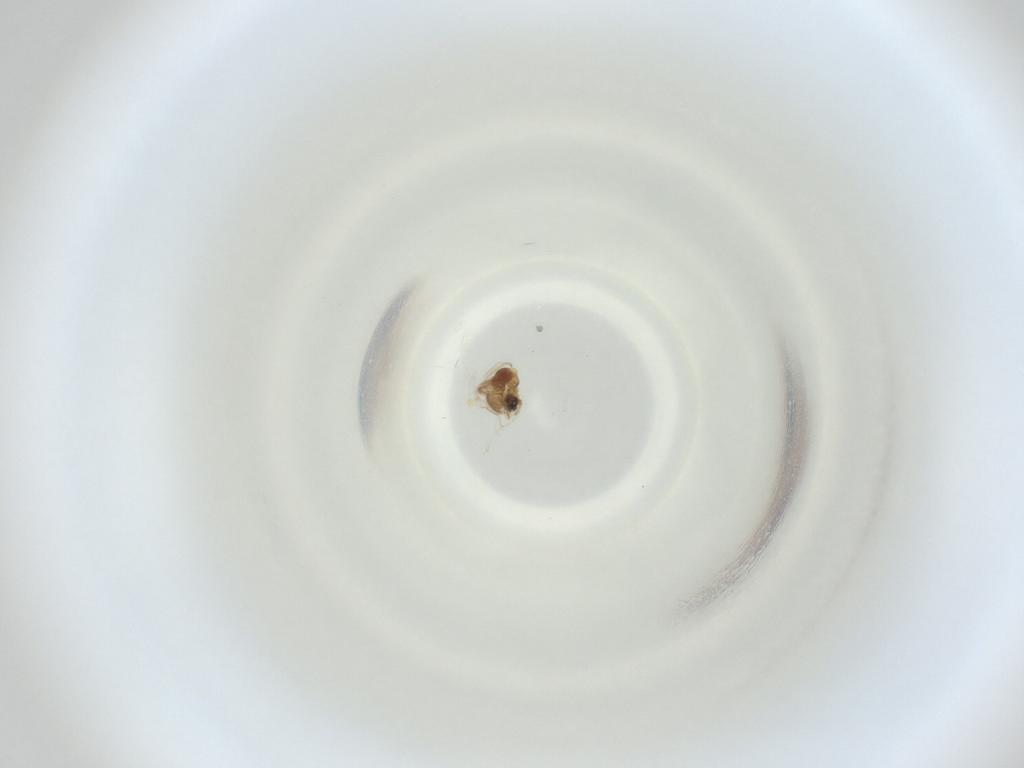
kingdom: Animalia
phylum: Arthropoda
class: Insecta
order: Diptera
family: Cecidomyiidae
